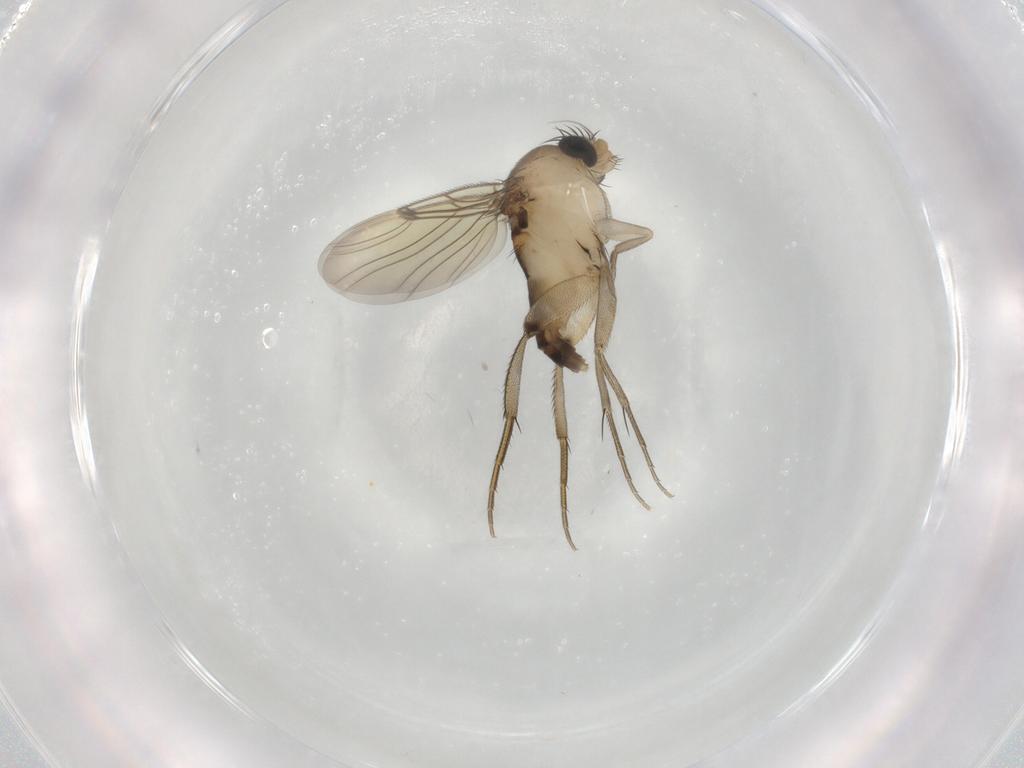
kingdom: Animalia
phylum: Arthropoda
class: Insecta
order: Diptera
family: Phoridae
